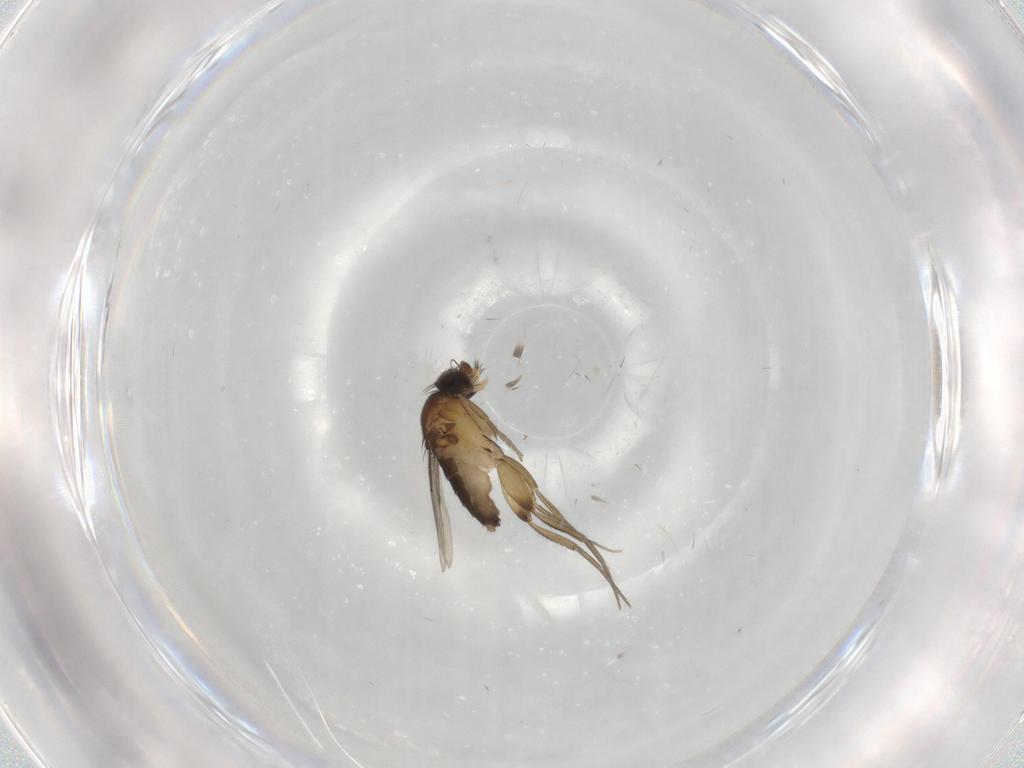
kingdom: Animalia
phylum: Arthropoda
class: Insecta
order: Diptera
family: Phoridae
